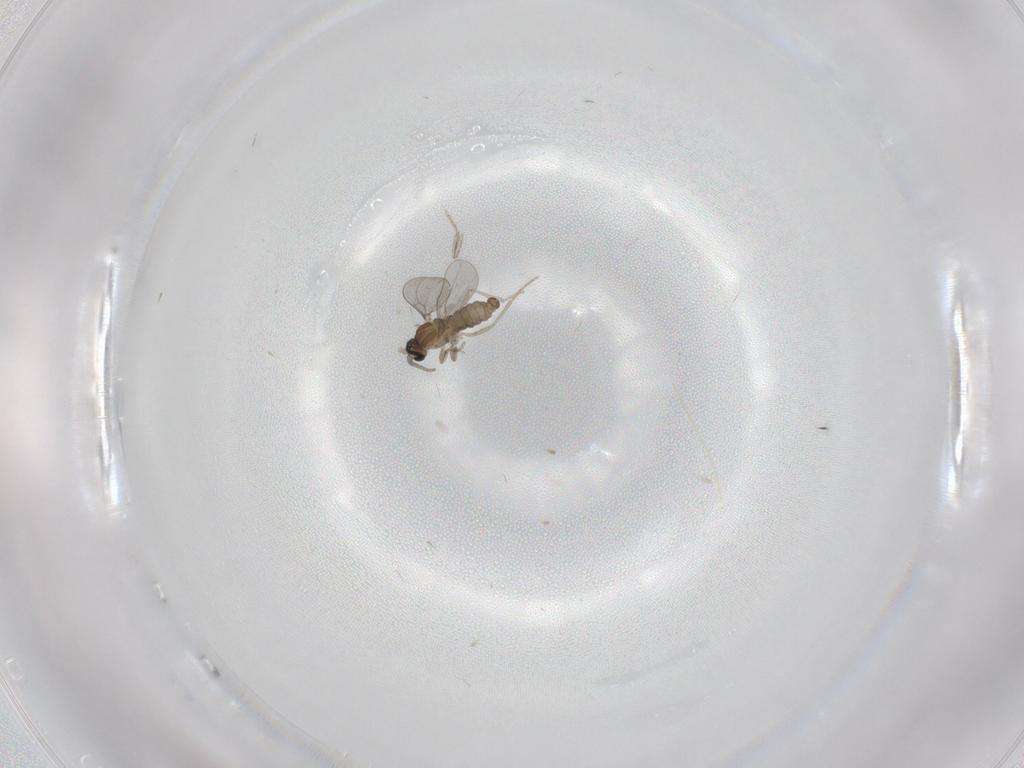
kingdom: Animalia
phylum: Arthropoda
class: Insecta
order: Diptera
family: Cecidomyiidae
